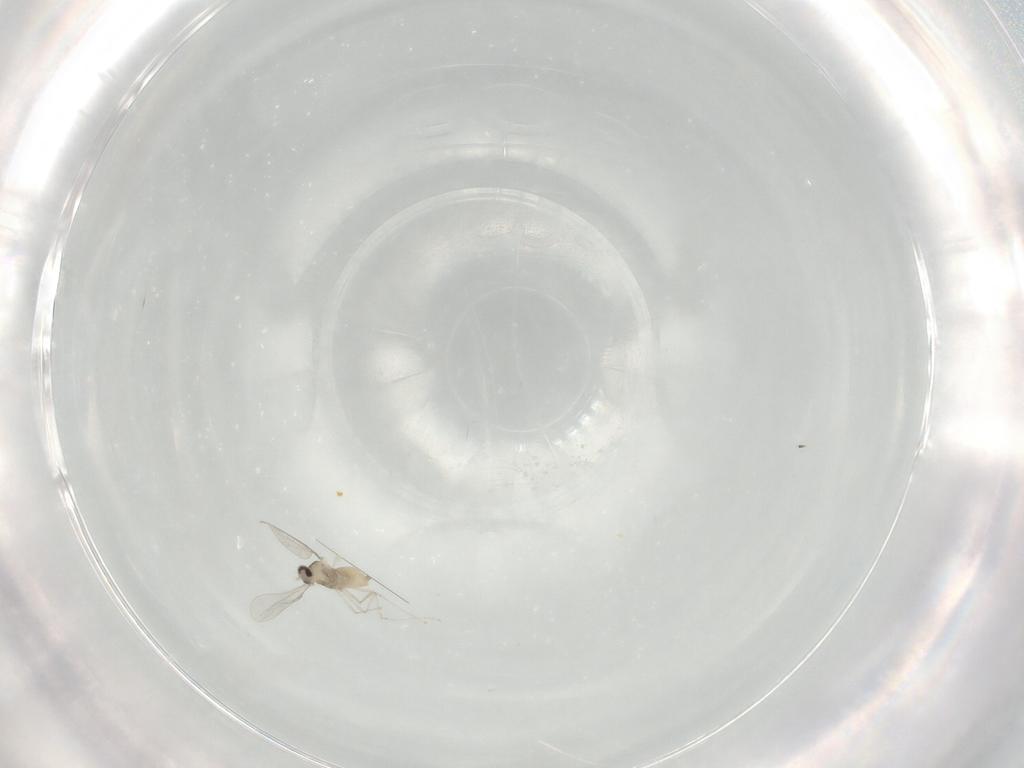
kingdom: Animalia
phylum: Arthropoda
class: Insecta
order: Diptera
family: Cecidomyiidae
